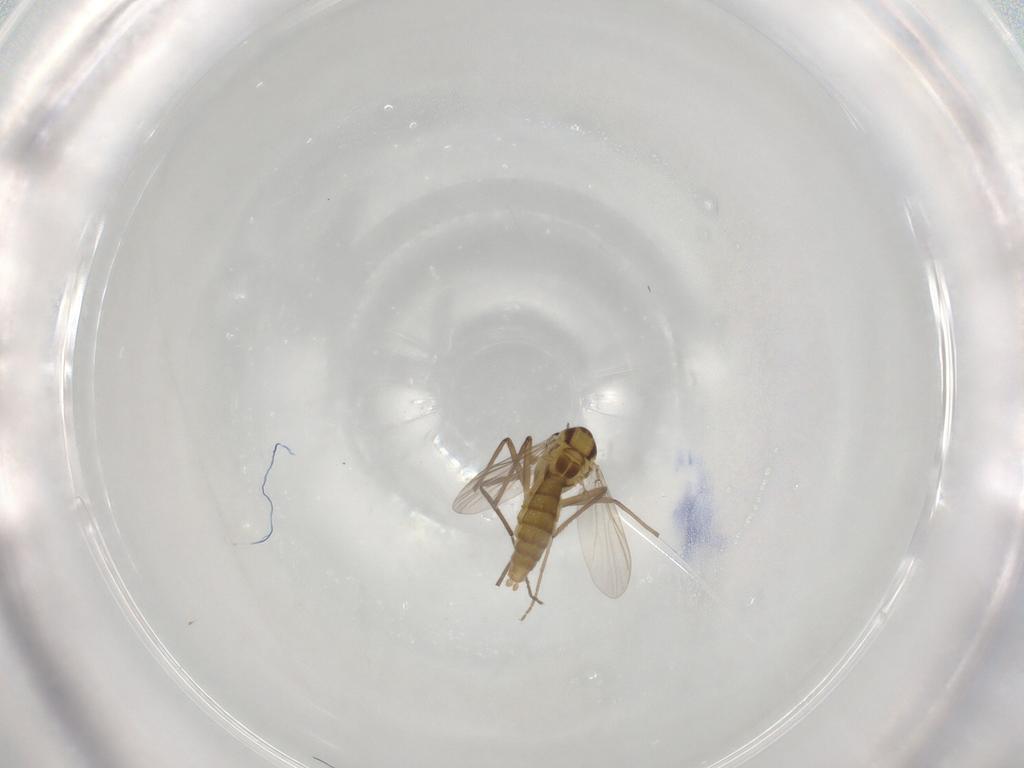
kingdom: Animalia
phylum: Arthropoda
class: Insecta
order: Diptera
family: Chironomidae
